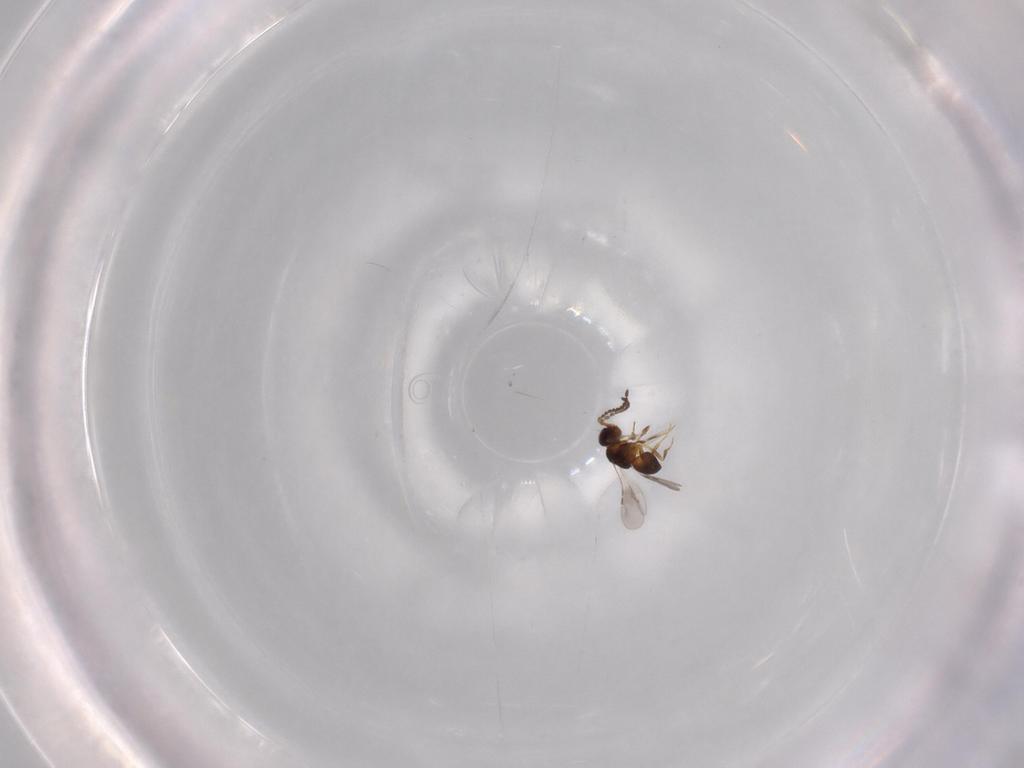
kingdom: Animalia
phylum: Arthropoda
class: Insecta
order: Hymenoptera
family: Ceraphronidae
